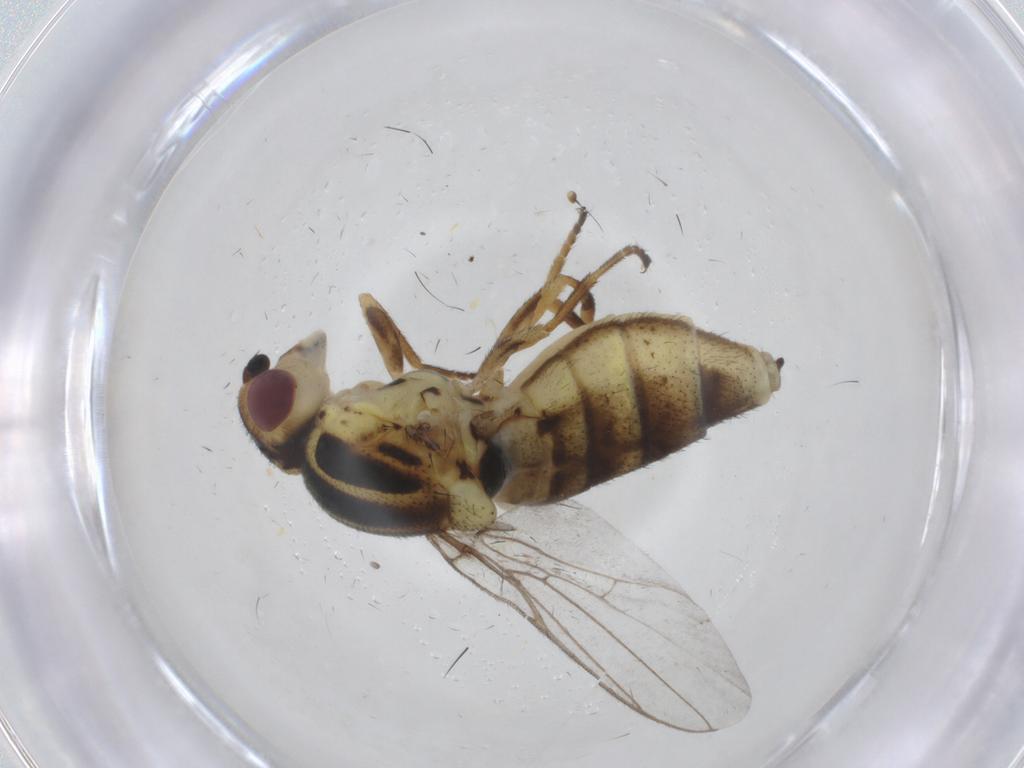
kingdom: Animalia
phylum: Arthropoda
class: Insecta
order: Diptera
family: Chloropidae
